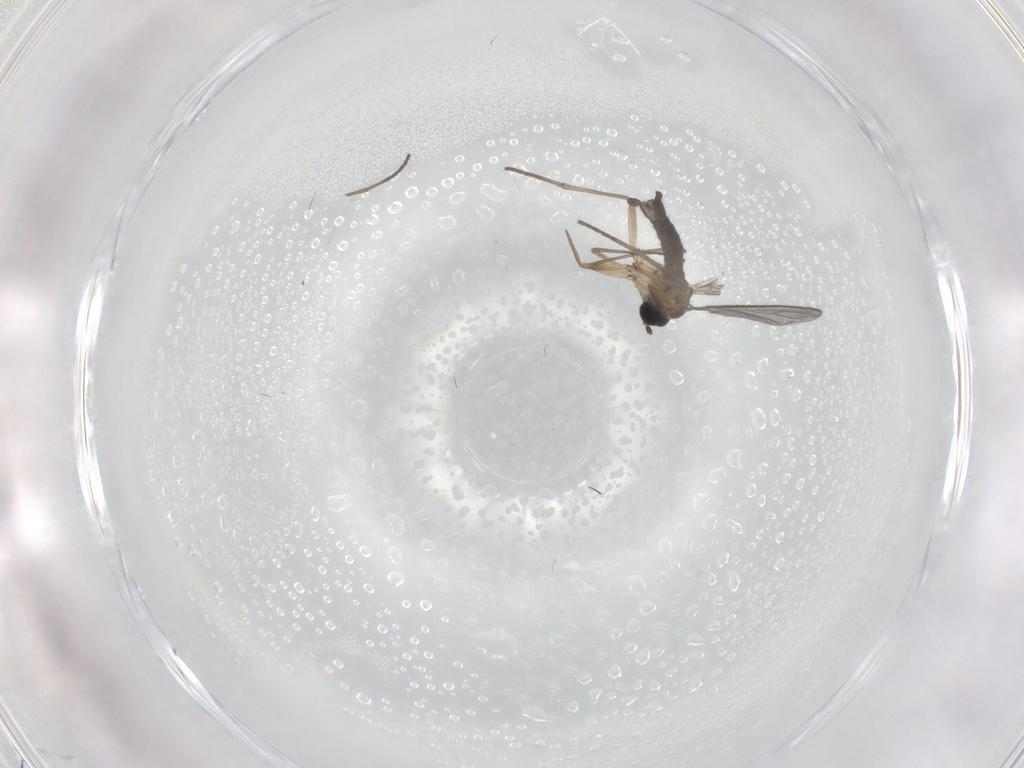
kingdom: Animalia
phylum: Arthropoda
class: Insecta
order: Diptera
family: Sciaridae
